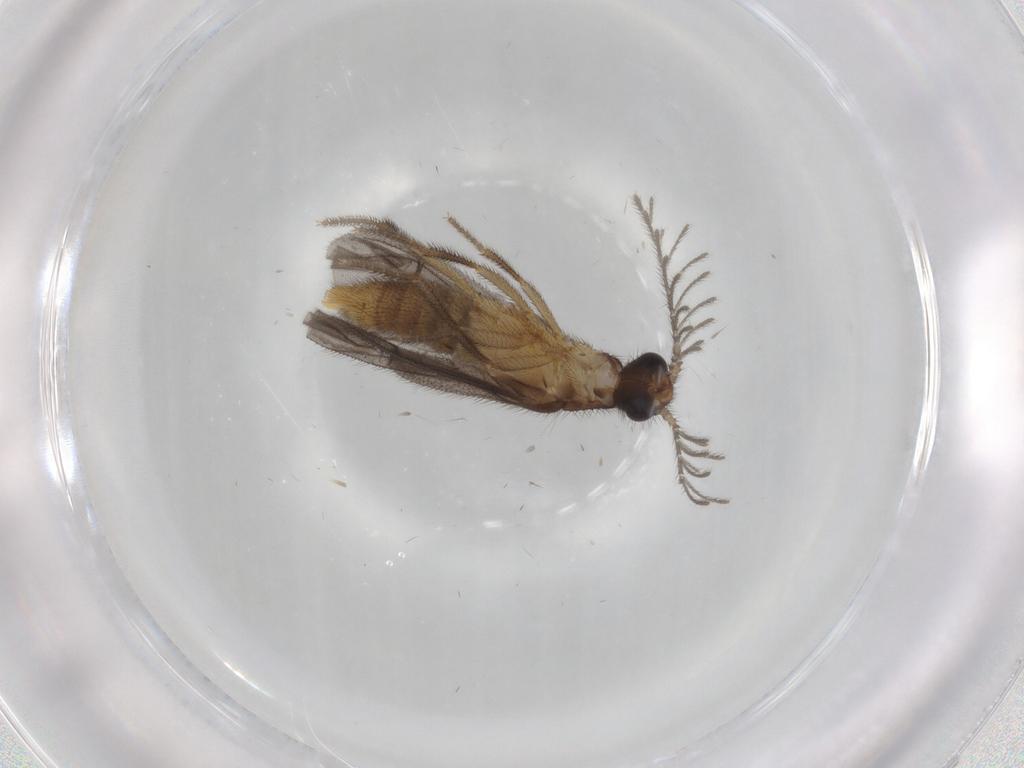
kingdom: Animalia
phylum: Arthropoda
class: Insecta
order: Coleoptera
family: Phengodidae
